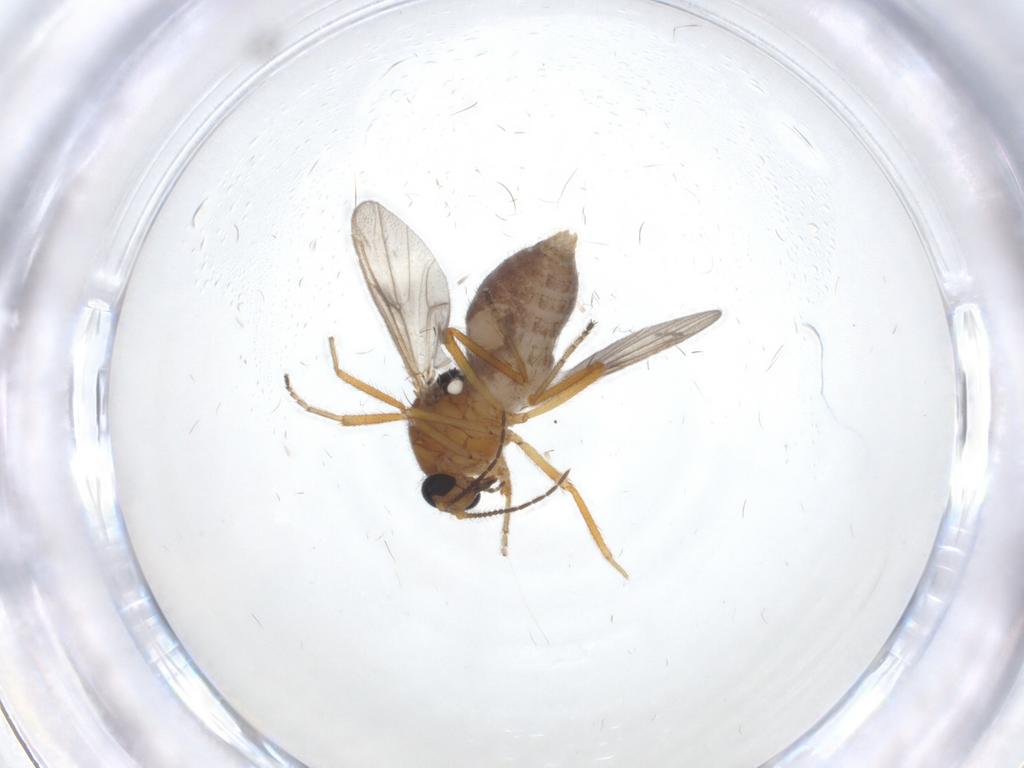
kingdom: Animalia
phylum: Arthropoda
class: Insecta
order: Diptera
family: Ceratopogonidae
